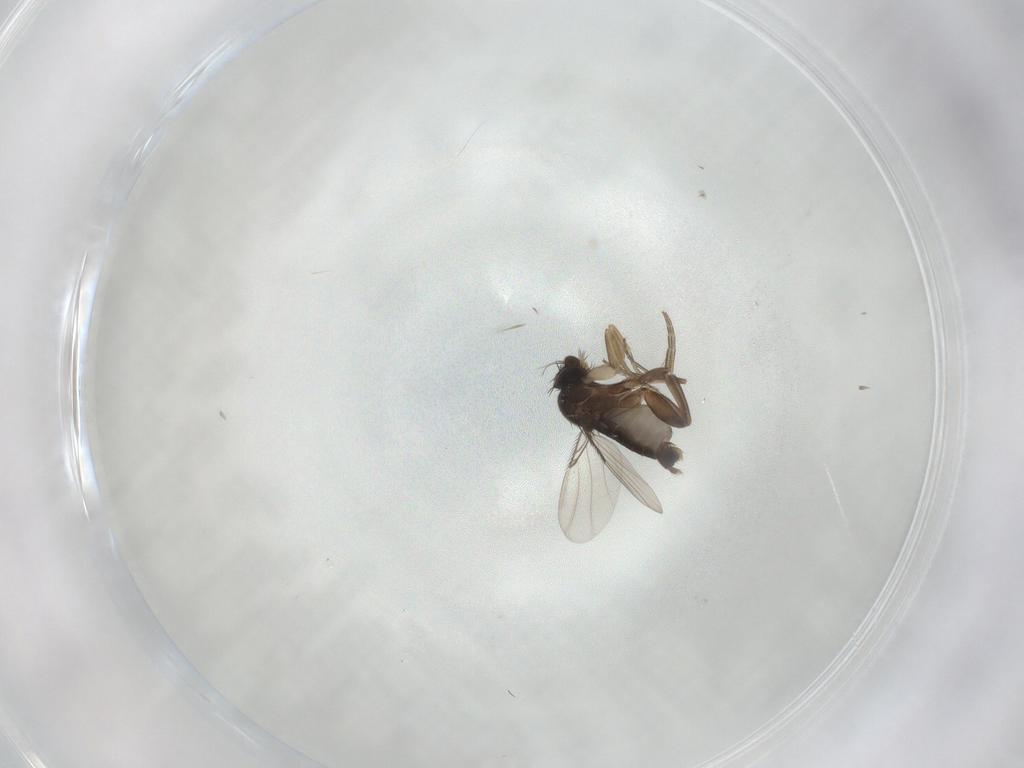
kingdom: Animalia
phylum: Arthropoda
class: Insecta
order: Diptera
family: Phoridae
